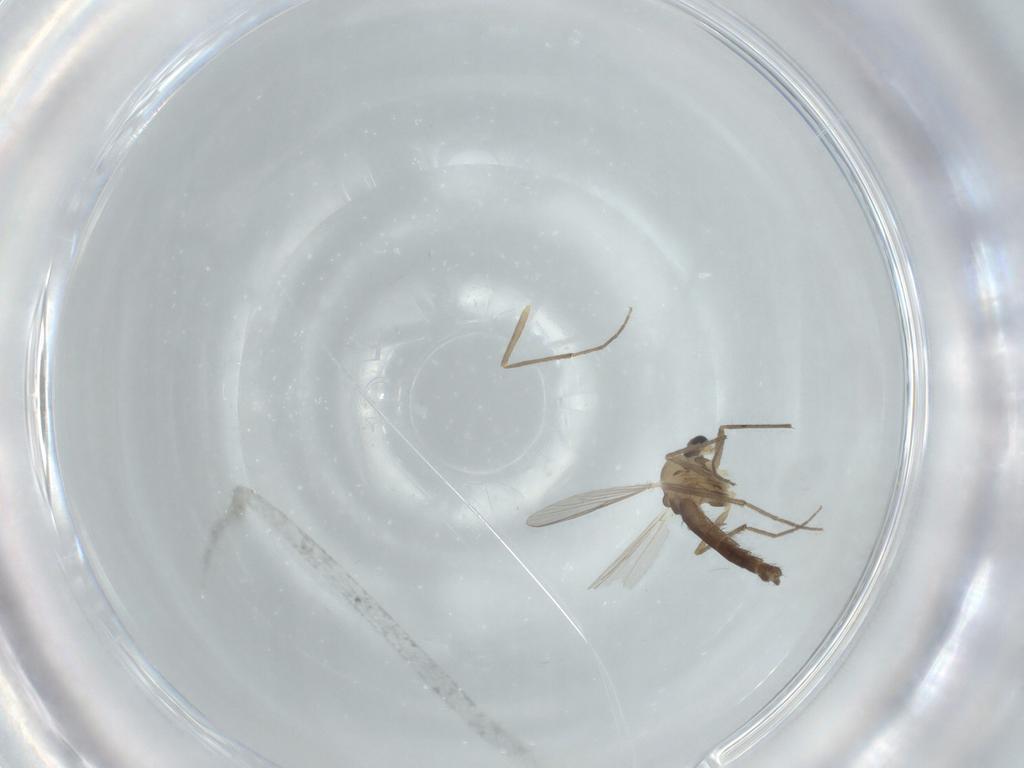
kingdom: Animalia
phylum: Arthropoda
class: Insecta
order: Diptera
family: Chironomidae
